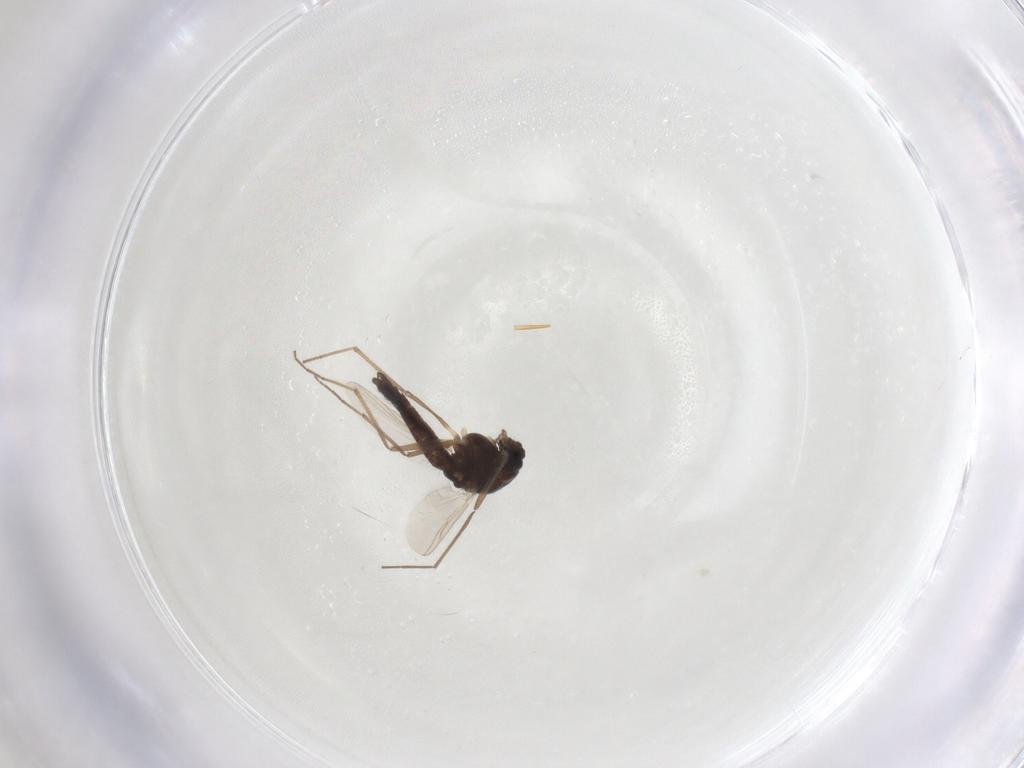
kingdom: Animalia
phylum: Arthropoda
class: Insecta
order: Diptera
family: Chironomidae
